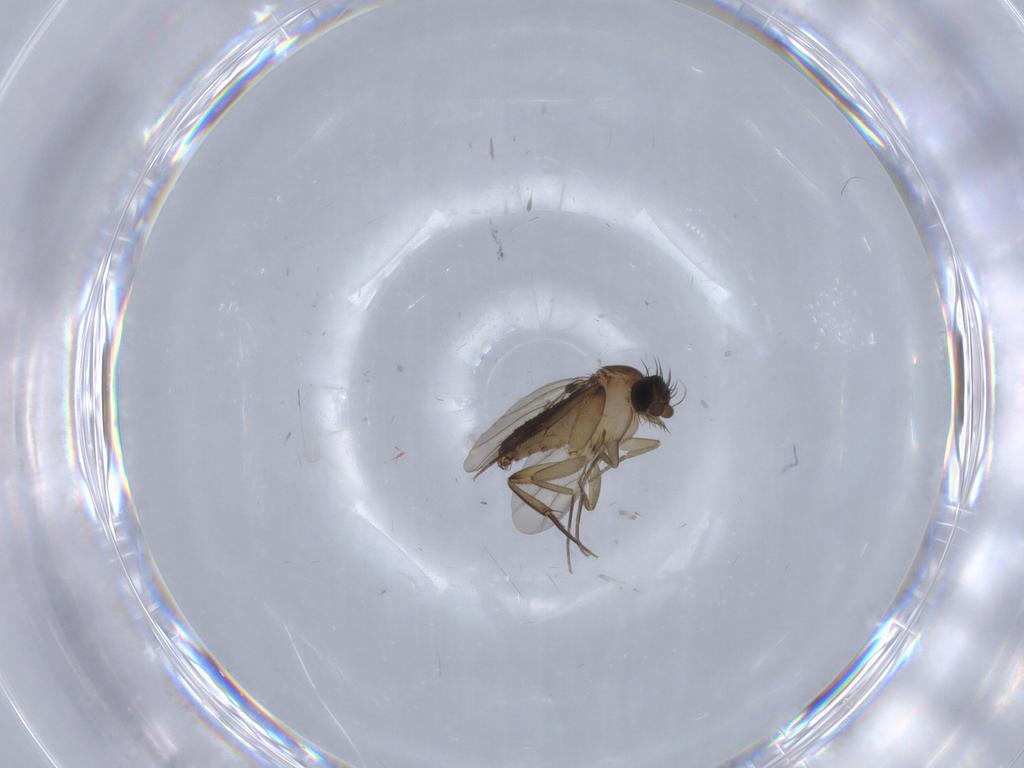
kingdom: Animalia
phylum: Arthropoda
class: Insecta
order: Diptera
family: Phoridae
